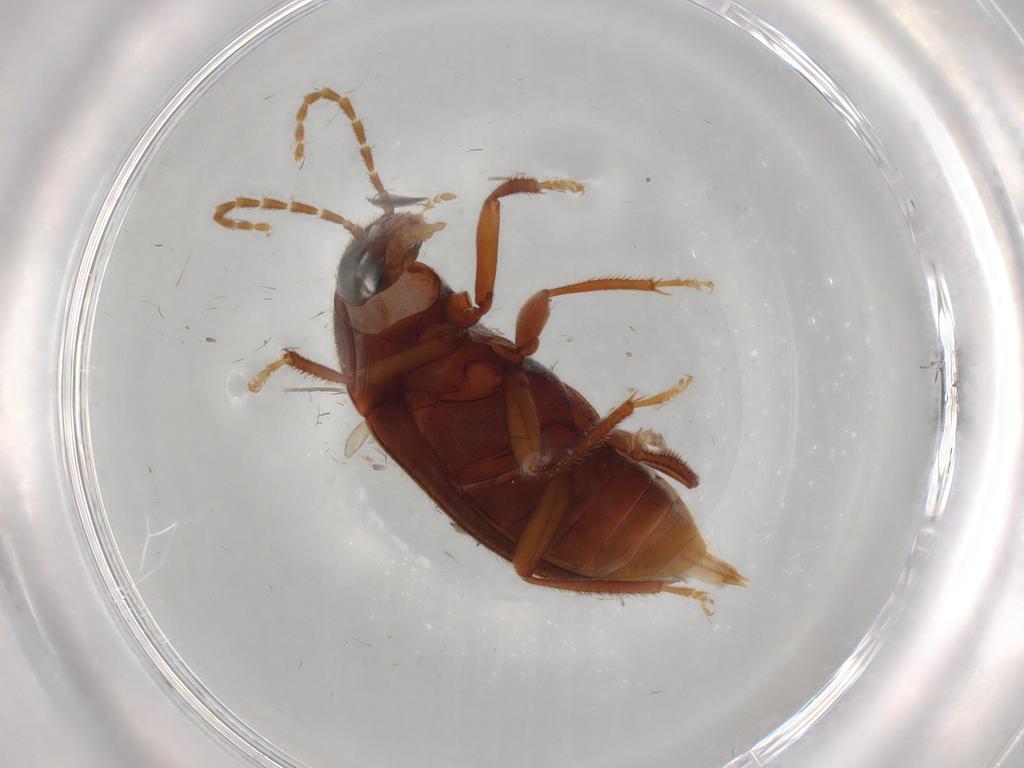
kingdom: Animalia
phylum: Arthropoda
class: Insecta
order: Coleoptera
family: Ptilodactylidae
